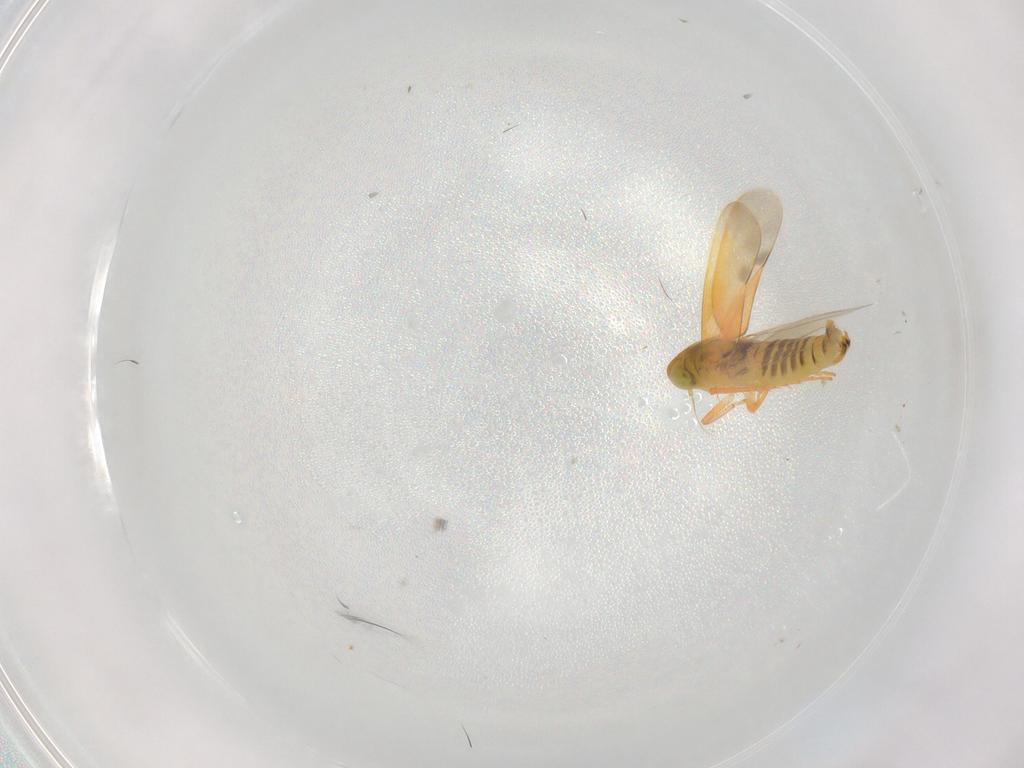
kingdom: Animalia
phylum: Arthropoda
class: Insecta
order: Hemiptera
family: Cicadellidae
